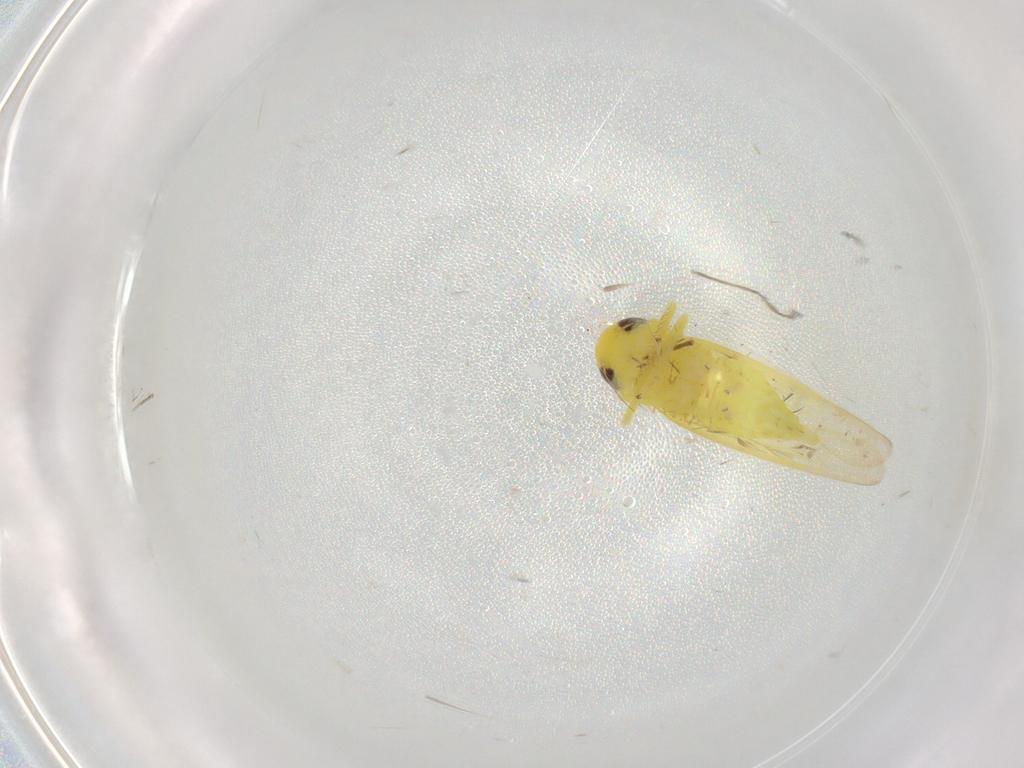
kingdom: Animalia
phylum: Arthropoda
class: Insecta
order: Hemiptera
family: Cicadellidae
